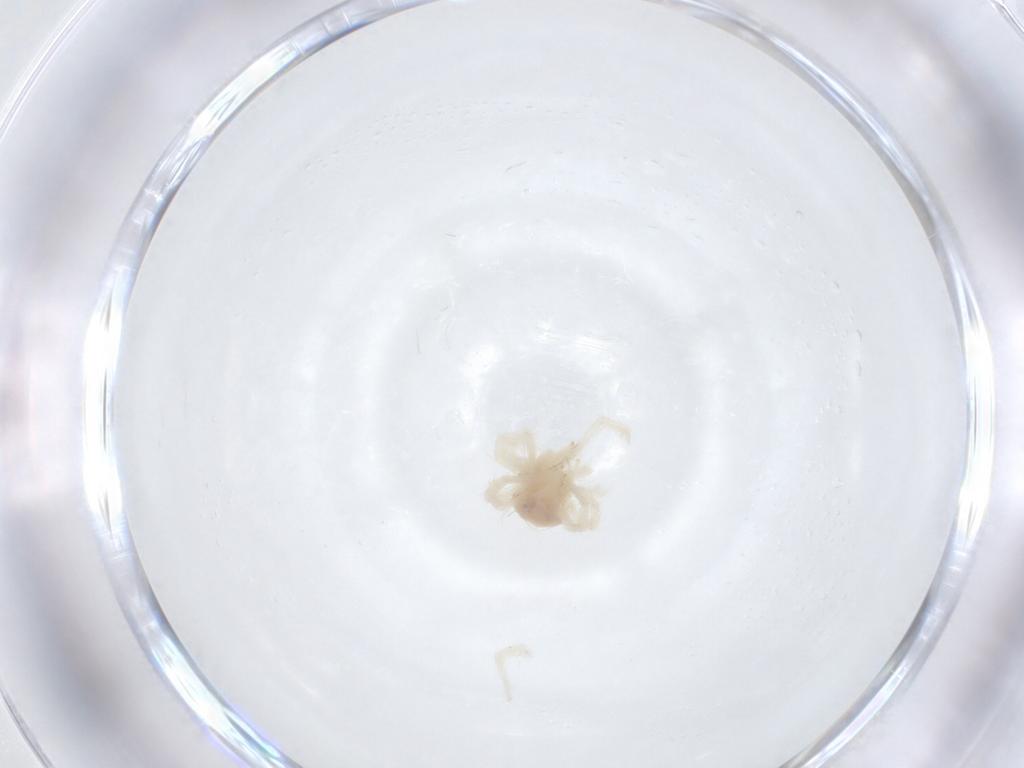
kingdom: Animalia
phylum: Arthropoda
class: Arachnida
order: Trombidiformes
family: Anystidae
